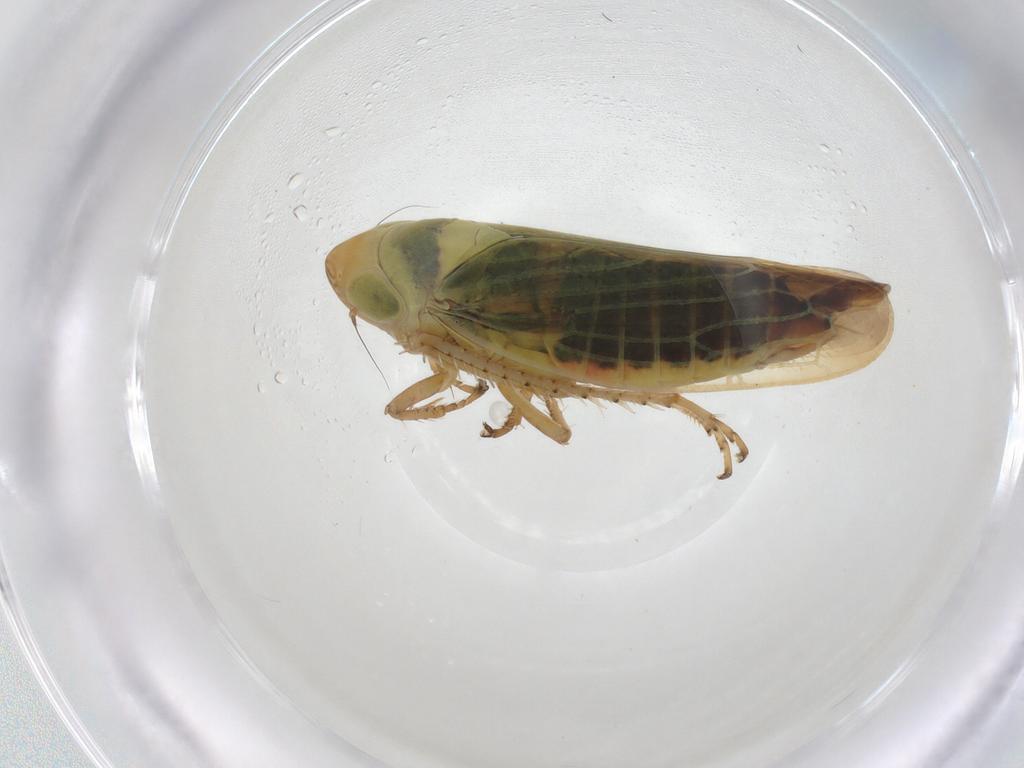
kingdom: Animalia
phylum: Arthropoda
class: Insecta
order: Hemiptera
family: Cicadellidae
